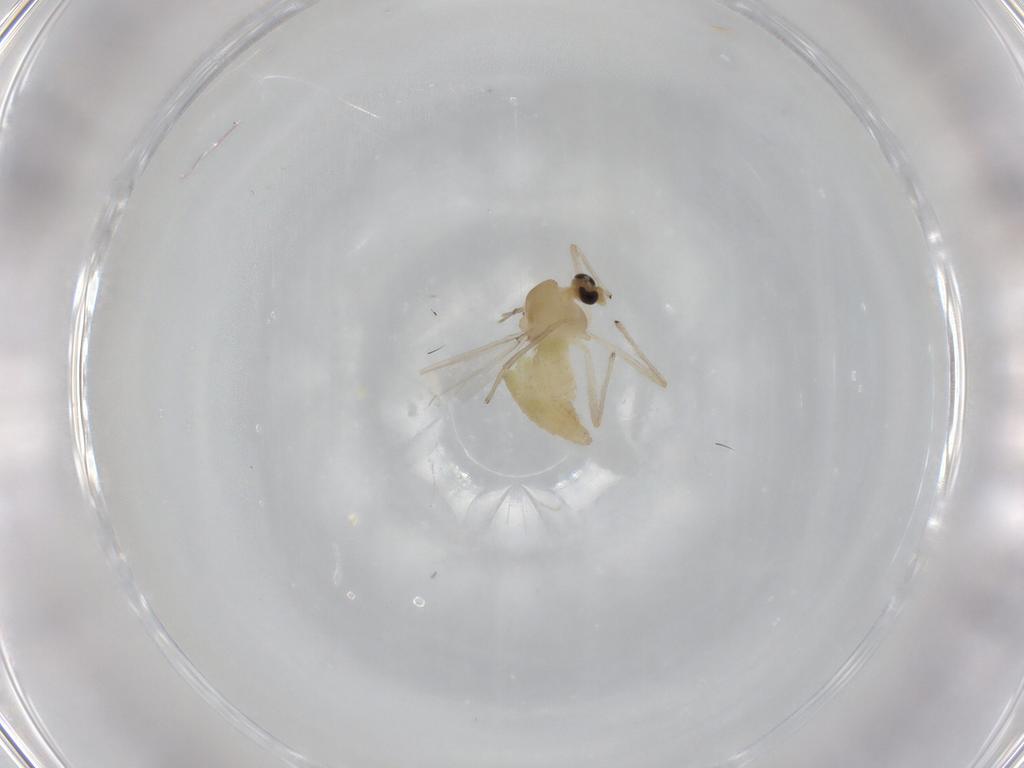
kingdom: Animalia
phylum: Arthropoda
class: Insecta
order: Diptera
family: Chironomidae
